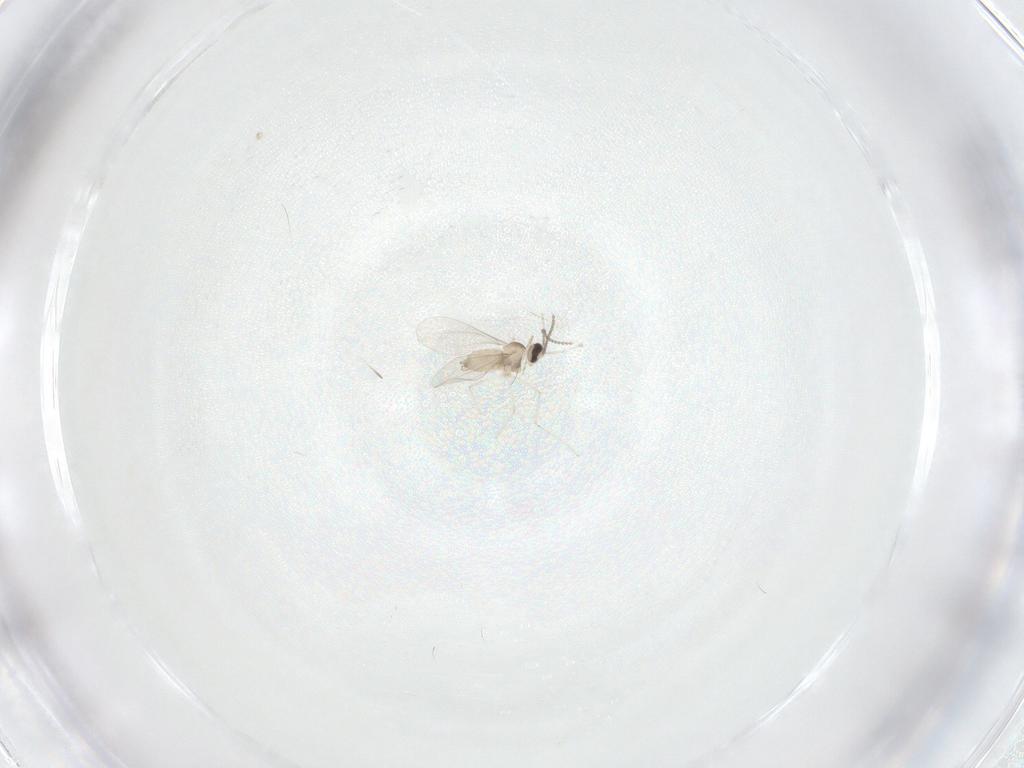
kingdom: Animalia
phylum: Arthropoda
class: Insecta
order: Diptera
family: Cecidomyiidae
